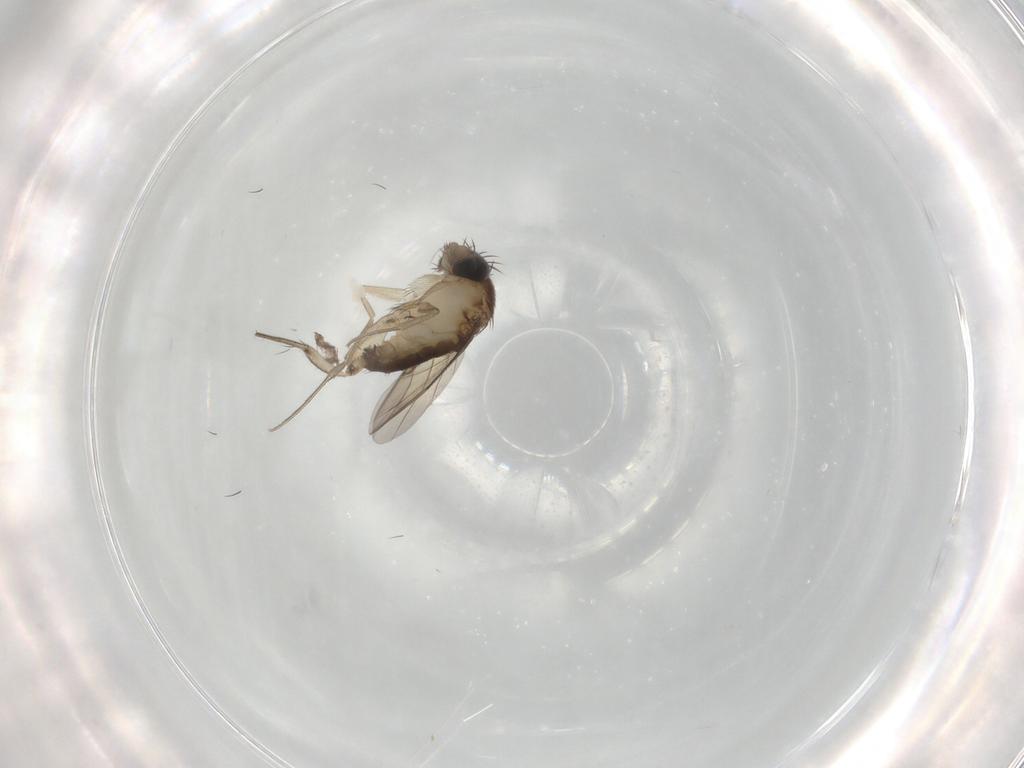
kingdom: Animalia
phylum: Arthropoda
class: Insecta
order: Diptera
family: Phoridae
